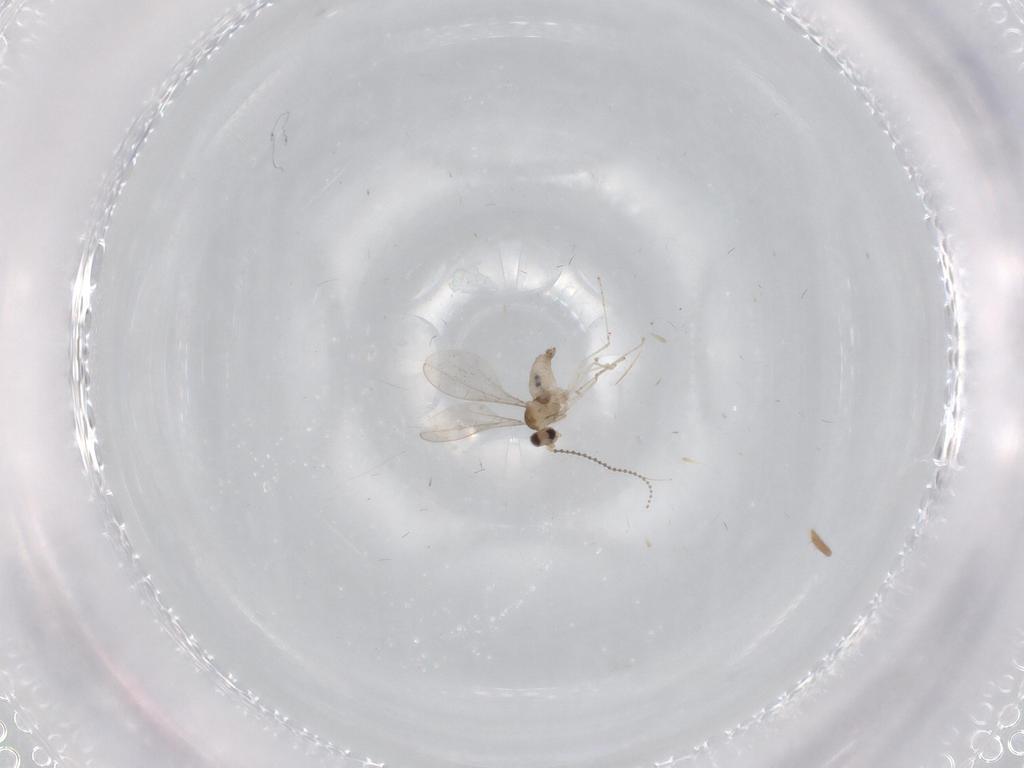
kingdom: Animalia
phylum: Arthropoda
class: Insecta
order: Diptera
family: Cecidomyiidae
